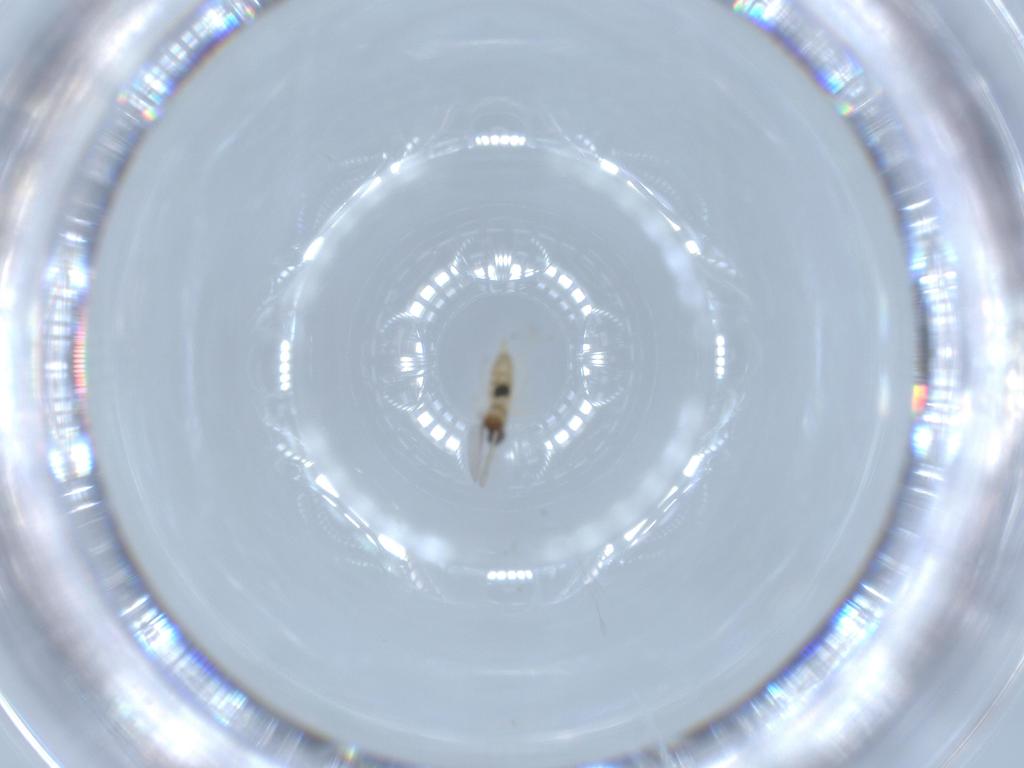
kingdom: Animalia
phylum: Arthropoda
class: Insecta
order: Diptera
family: Cecidomyiidae
